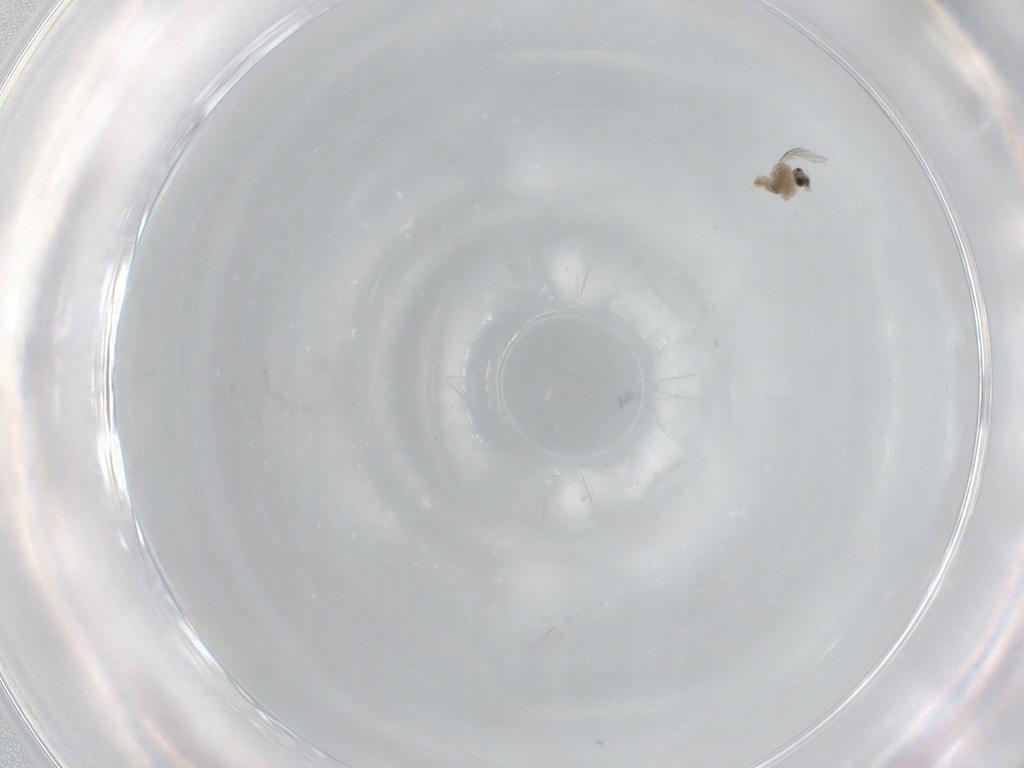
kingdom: Animalia
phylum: Arthropoda
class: Insecta
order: Diptera
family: Cecidomyiidae
